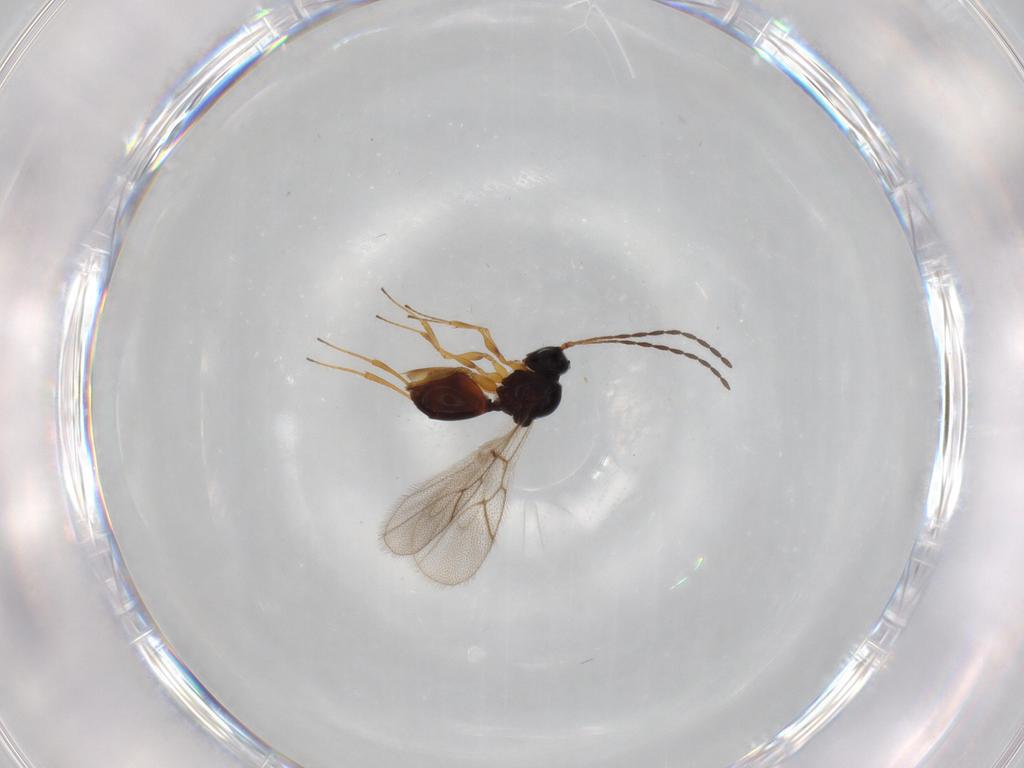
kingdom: Animalia
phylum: Arthropoda
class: Insecta
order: Hymenoptera
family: Figitidae
